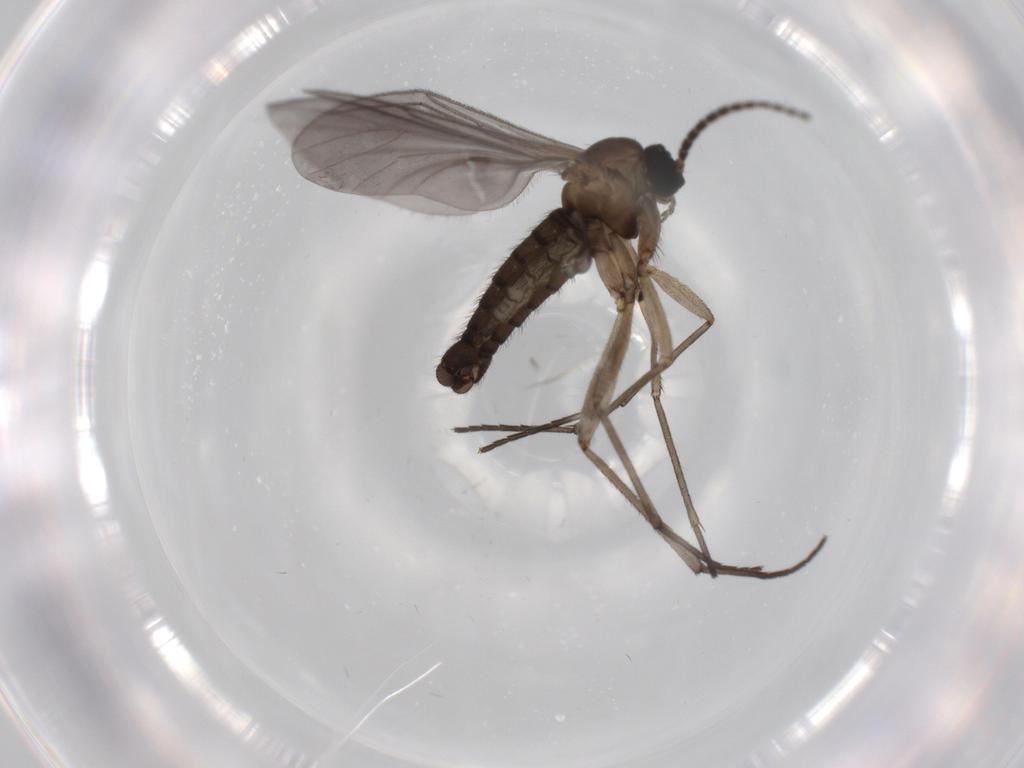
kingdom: Animalia
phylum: Arthropoda
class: Insecta
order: Diptera
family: Sciaridae
